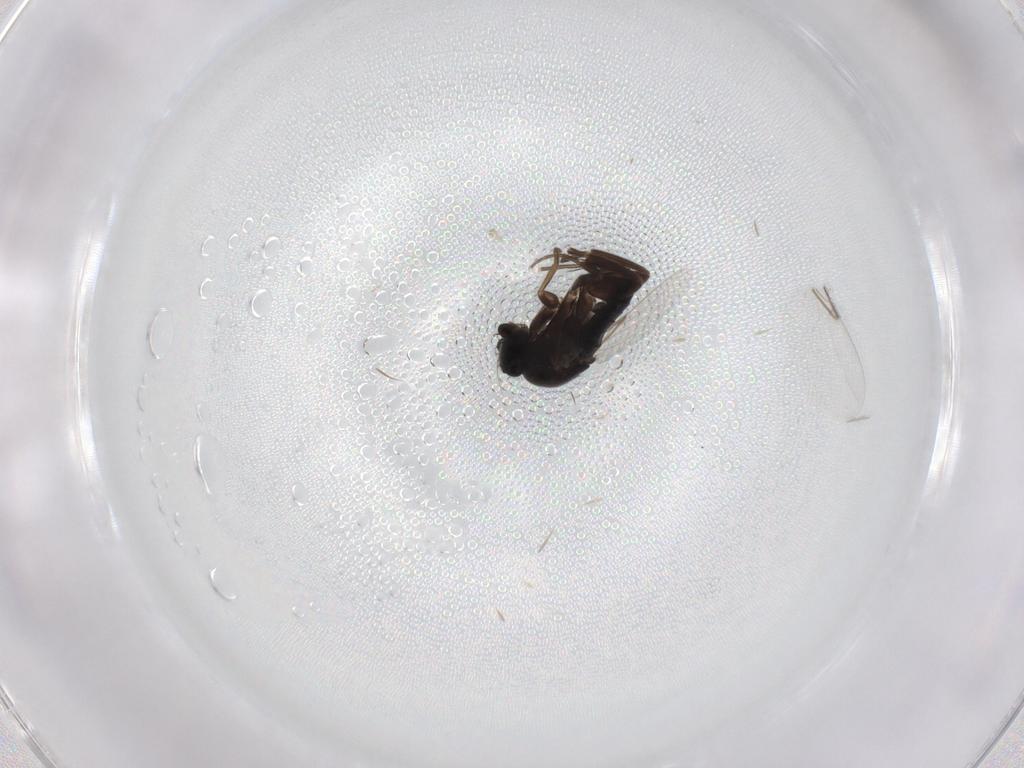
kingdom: Animalia
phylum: Arthropoda
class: Insecta
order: Diptera
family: Phoridae
